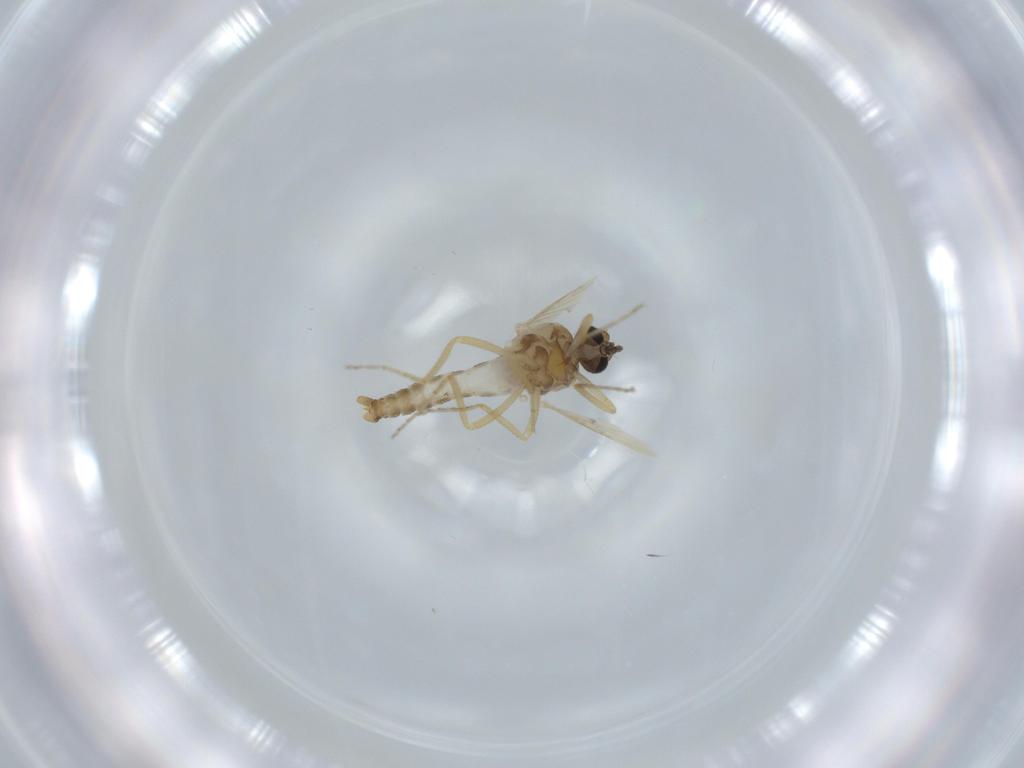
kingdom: Animalia
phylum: Arthropoda
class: Insecta
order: Diptera
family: Ceratopogonidae
